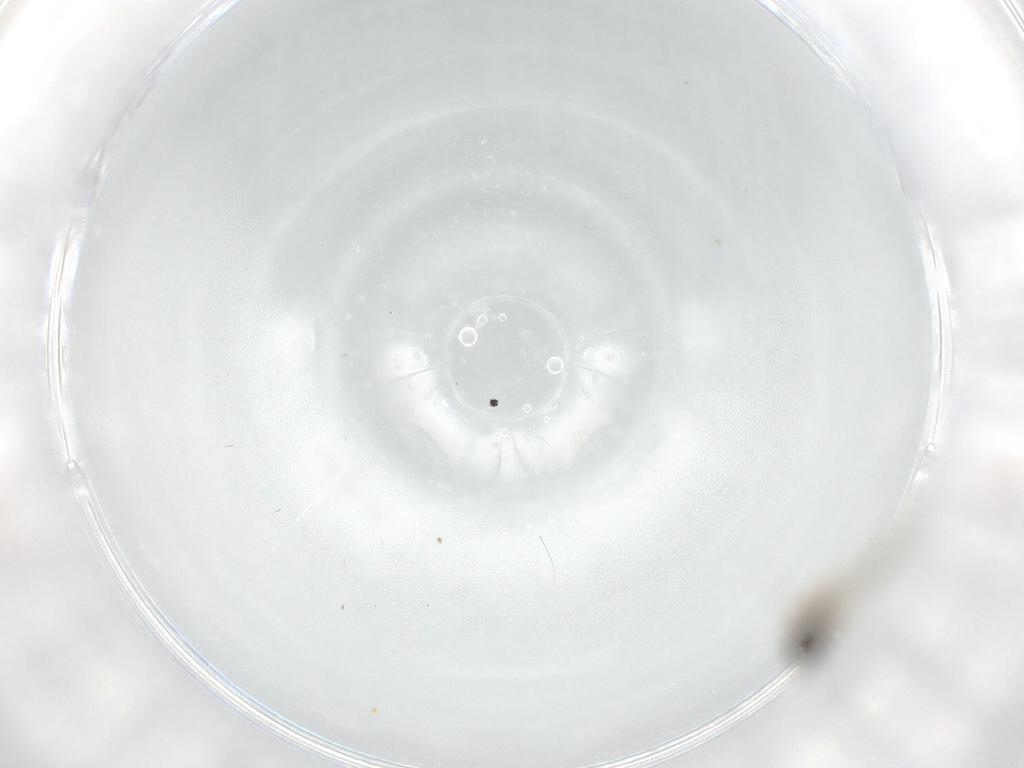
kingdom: Animalia
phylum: Arthropoda
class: Insecta
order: Diptera
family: Cecidomyiidae
